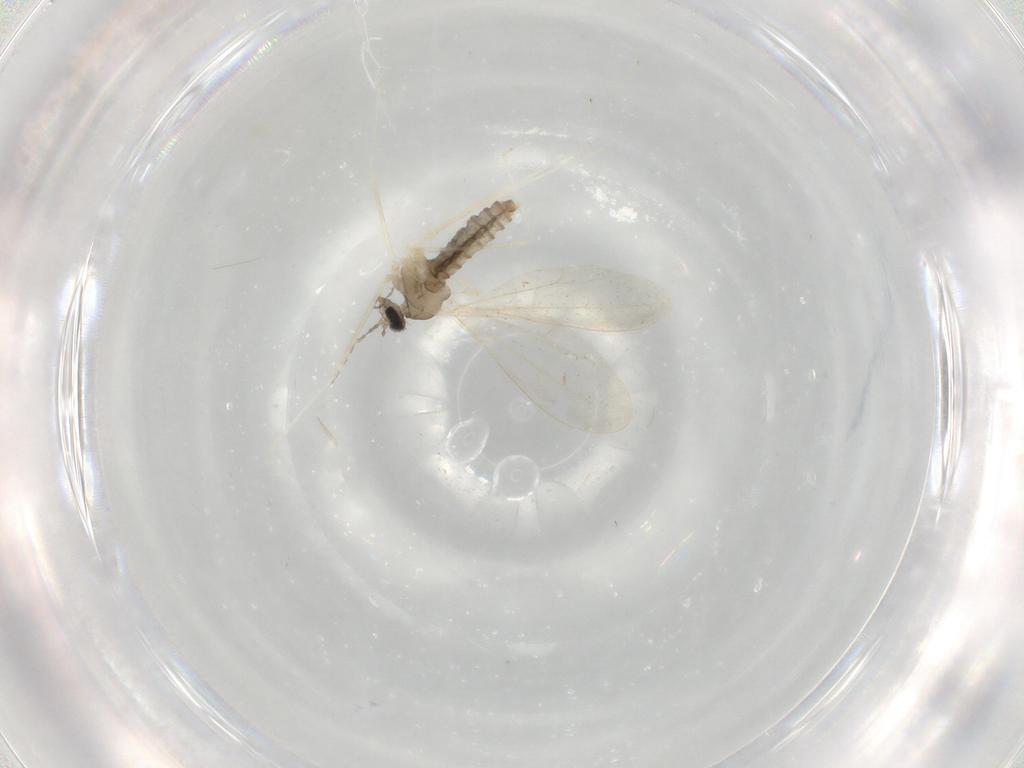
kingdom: Animalia
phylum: Arthropoda
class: Insecta
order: Diptera
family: Cecidomyiidae
